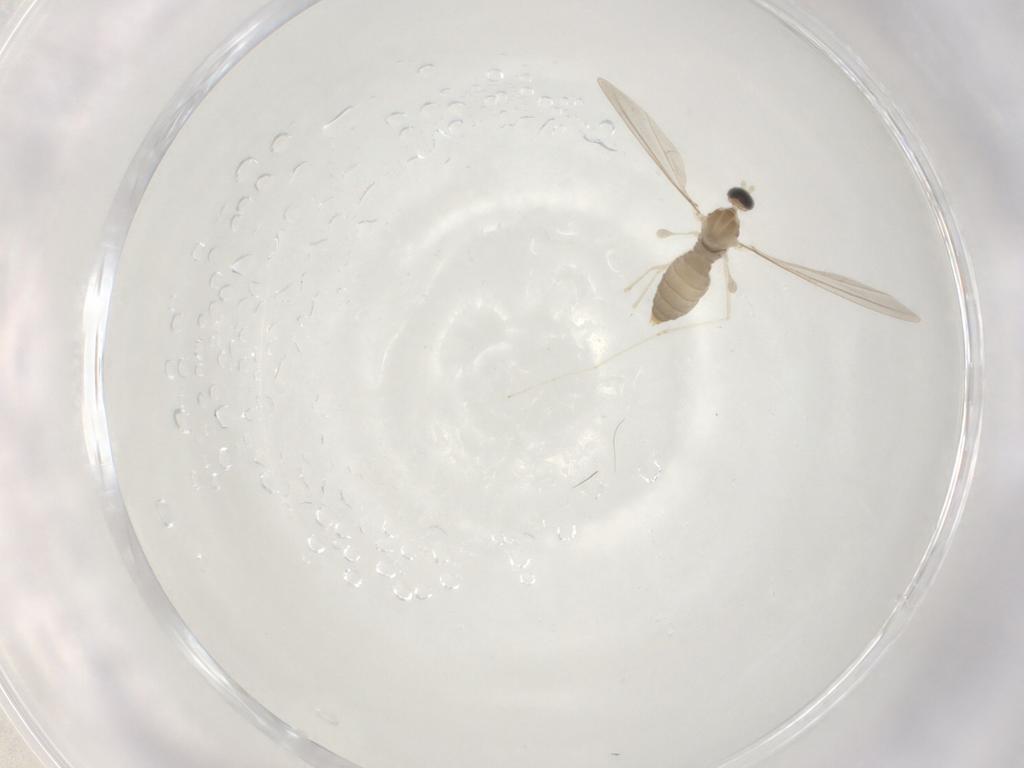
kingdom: Animalia
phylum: Arthropoda
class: Insecta
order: Diptera
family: Cecidomyiidae
